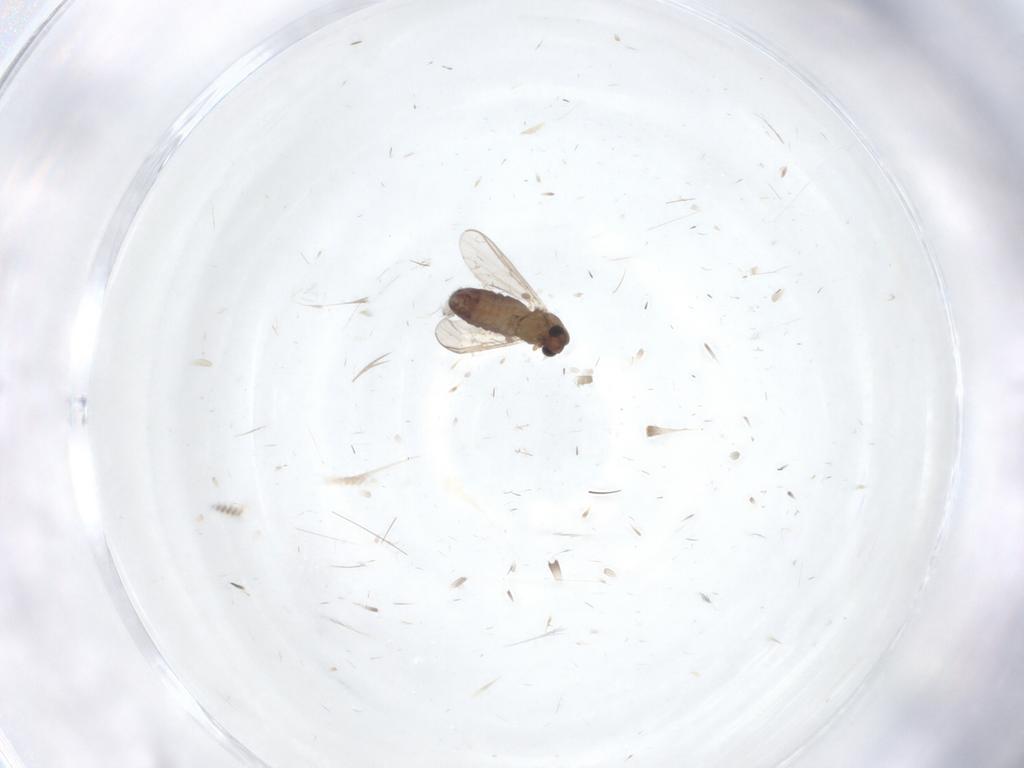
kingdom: Animalia
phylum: Arthropoda
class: Insecta
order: Diptera
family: Chironomidae
